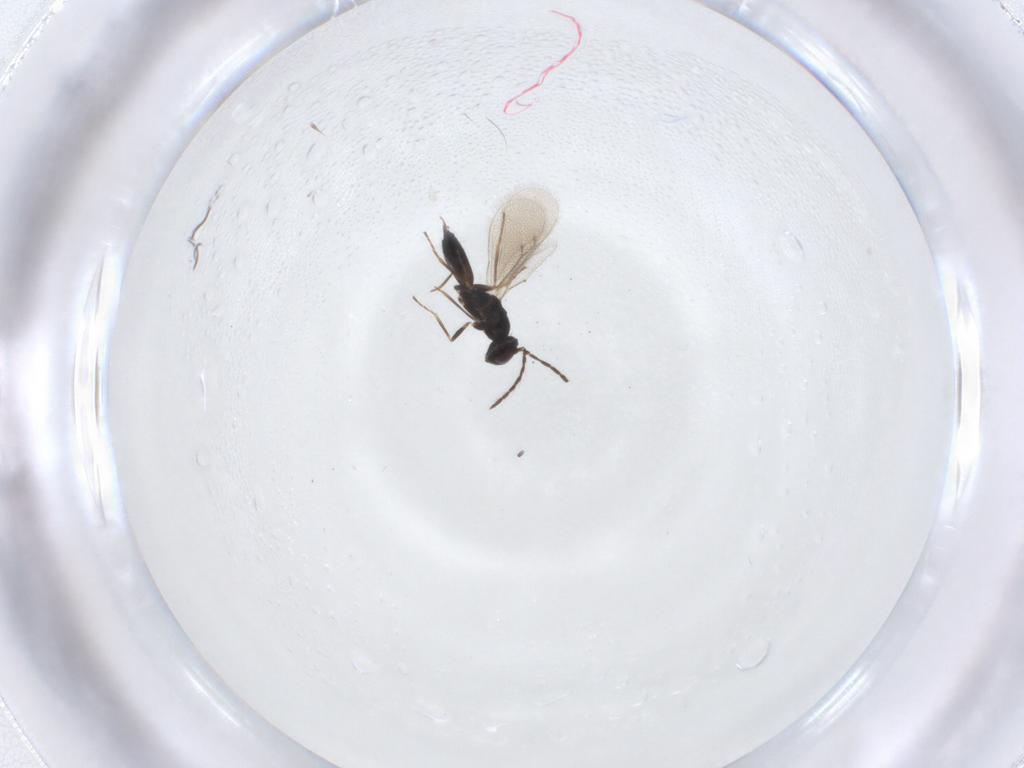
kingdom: Animalia
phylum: Arthropoda
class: Insecta
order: Hymenoptera
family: Eulophidae
